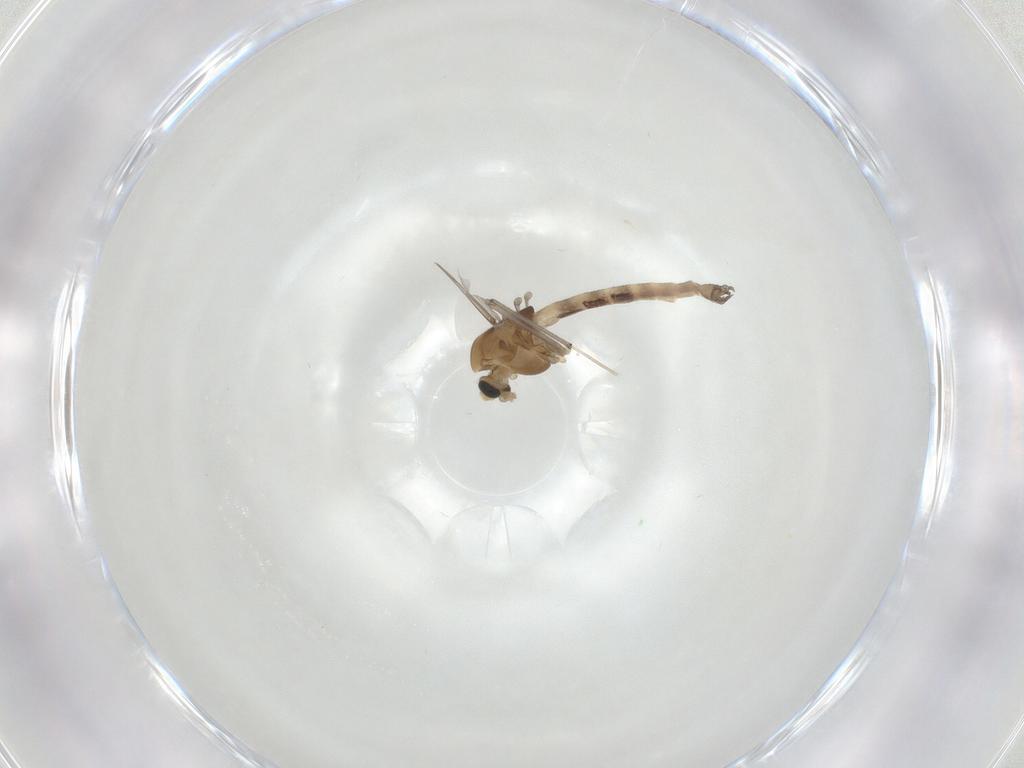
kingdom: Animalia
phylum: Arthropoda
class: Insecta
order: Diptera
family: Chironomidae
